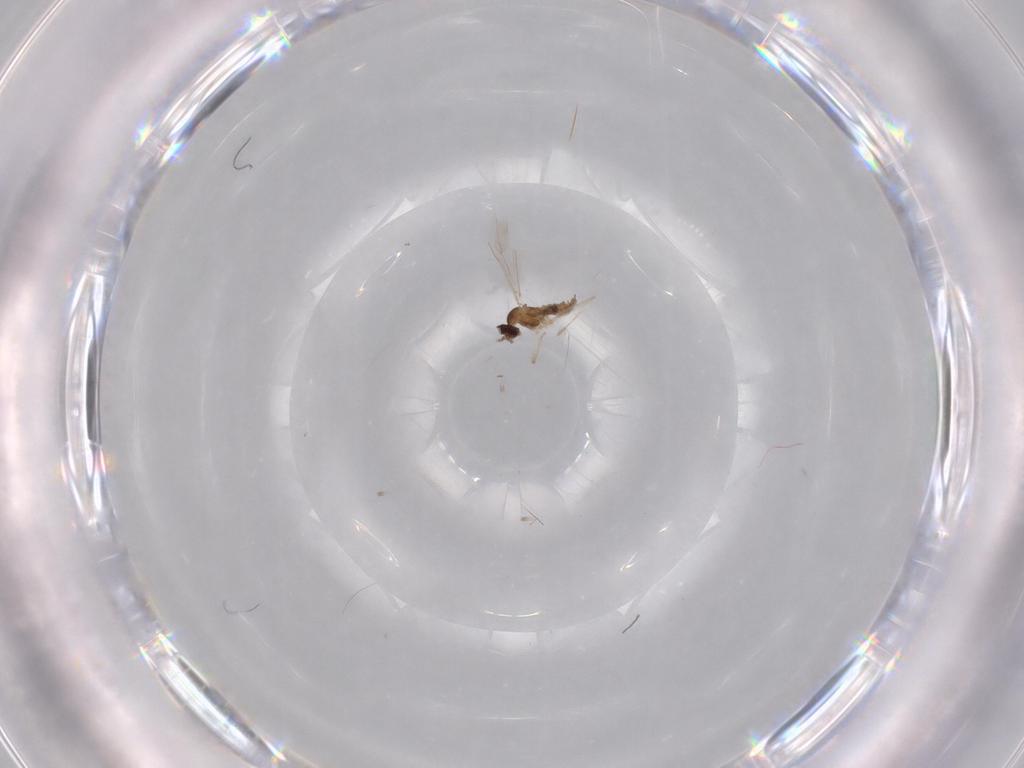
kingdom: Animalia
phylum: Arthropoda
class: Insecta
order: Diptera
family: Cecidomyiidae
